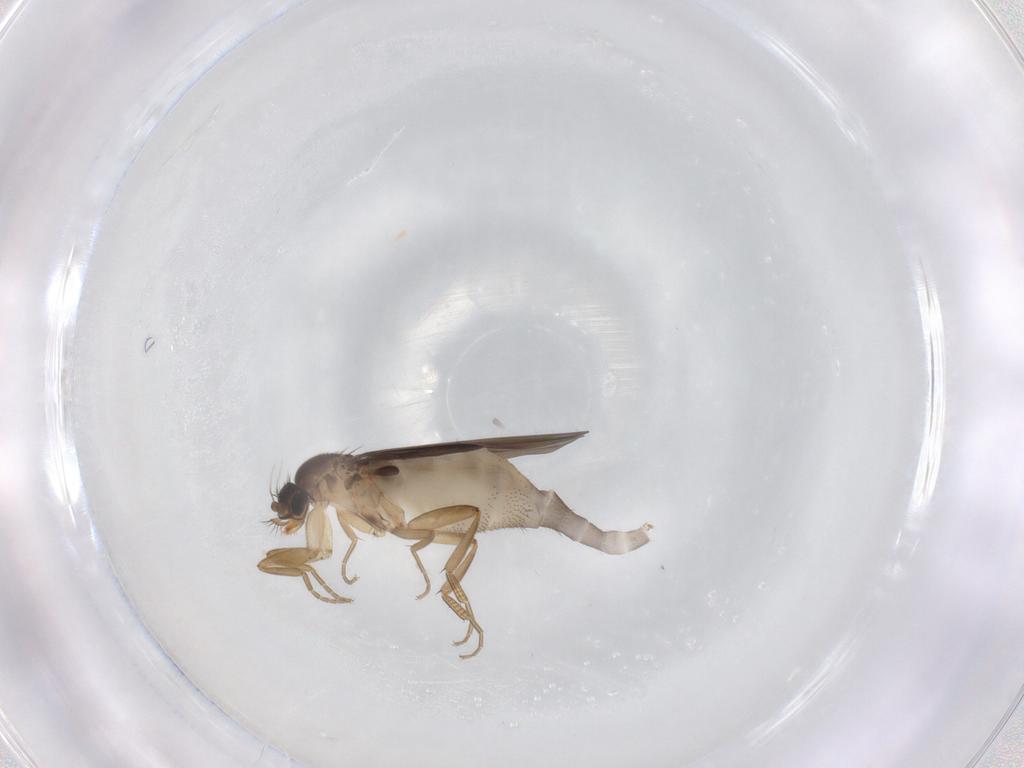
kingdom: Animalia
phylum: Arthropoda
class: Insecta
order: Diptera
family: Phoridae
